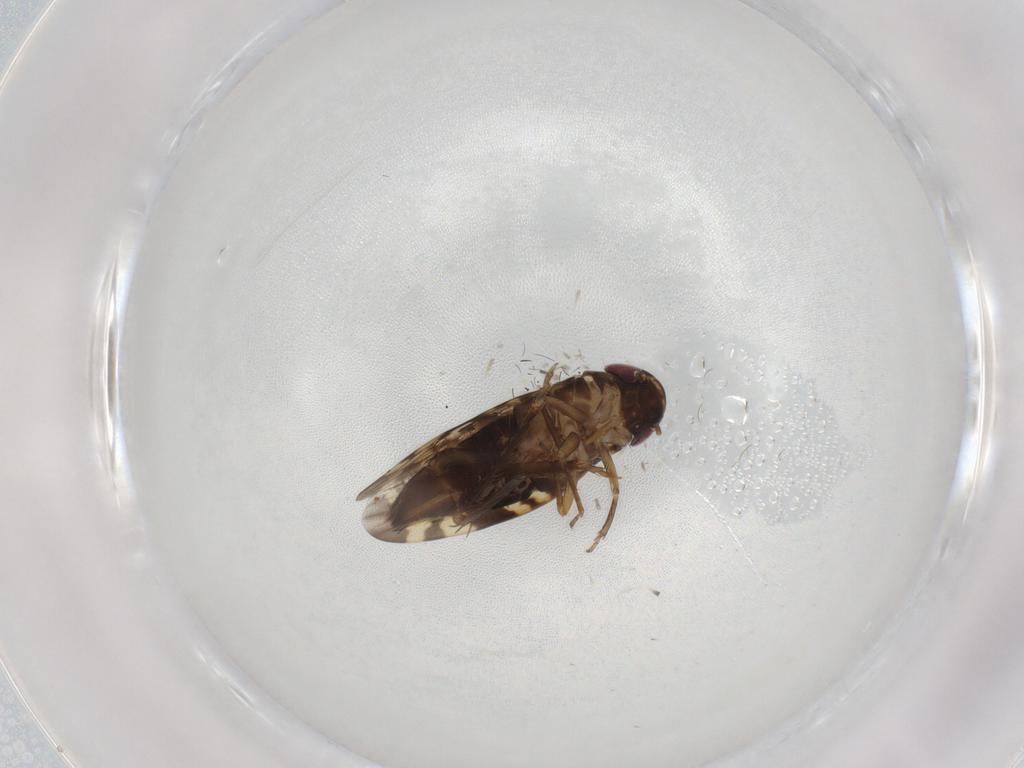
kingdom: Animalia
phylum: Arthropoda
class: Insecta
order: Hemiptera
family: Cicadellidae
